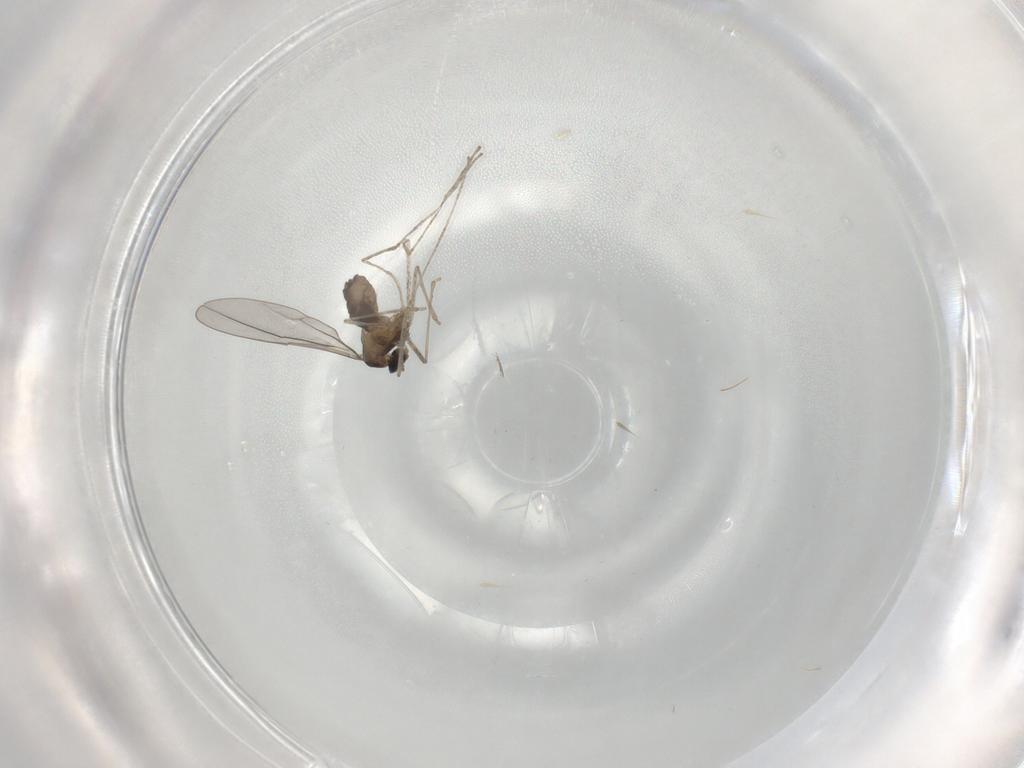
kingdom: Animalia
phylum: Arthropoda
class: Insecta
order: Diptera
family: Cecidomyiidae
